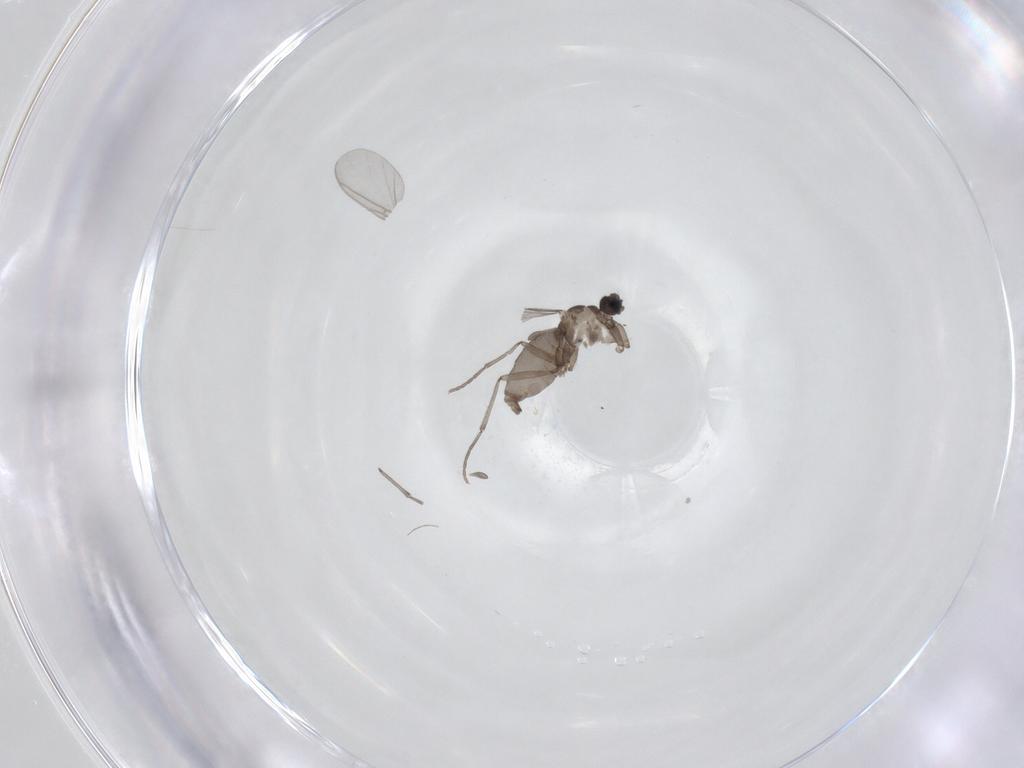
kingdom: Animalia
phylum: Arthropoda
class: Insecta
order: Diptera
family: Sciaridae
